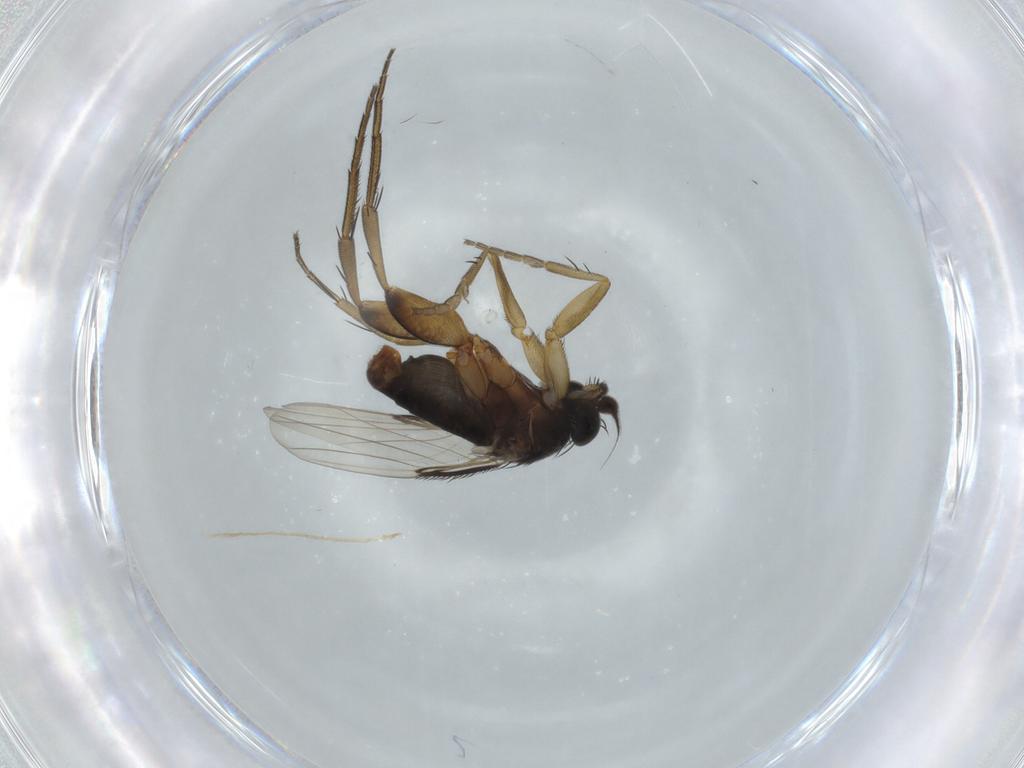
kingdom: Animalia
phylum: Arthropoda
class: Insecta
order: Diptera
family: Phoridae
